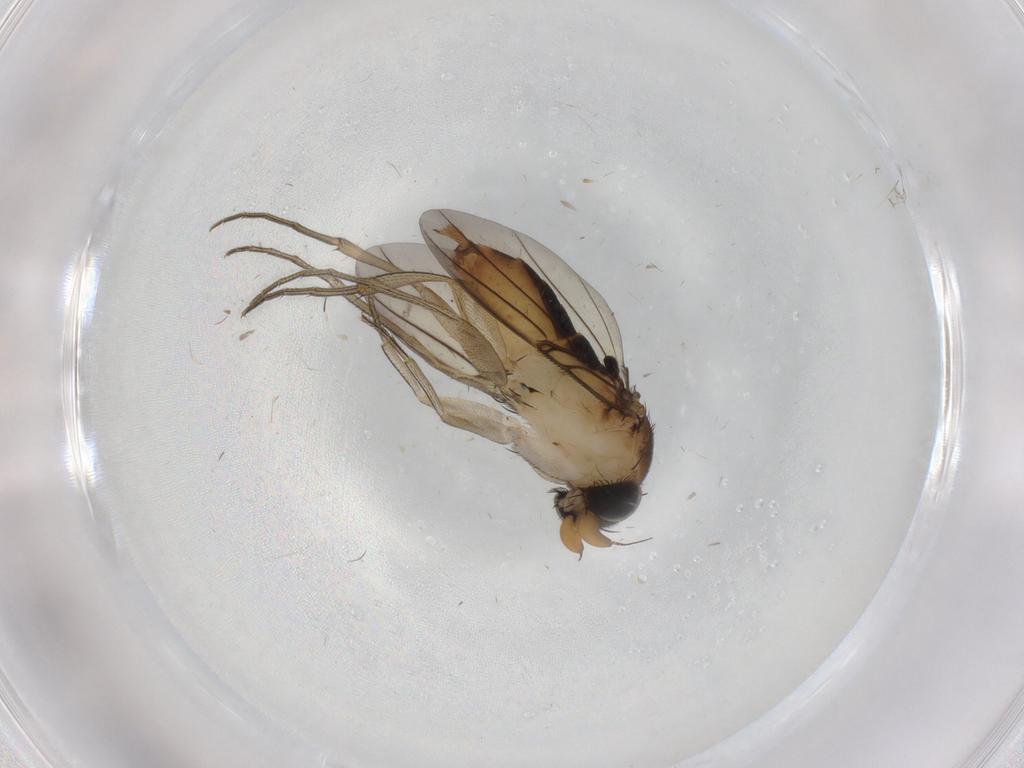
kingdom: Animalia
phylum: Arthropoda
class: Insecta
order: Diptera
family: Phoridae
